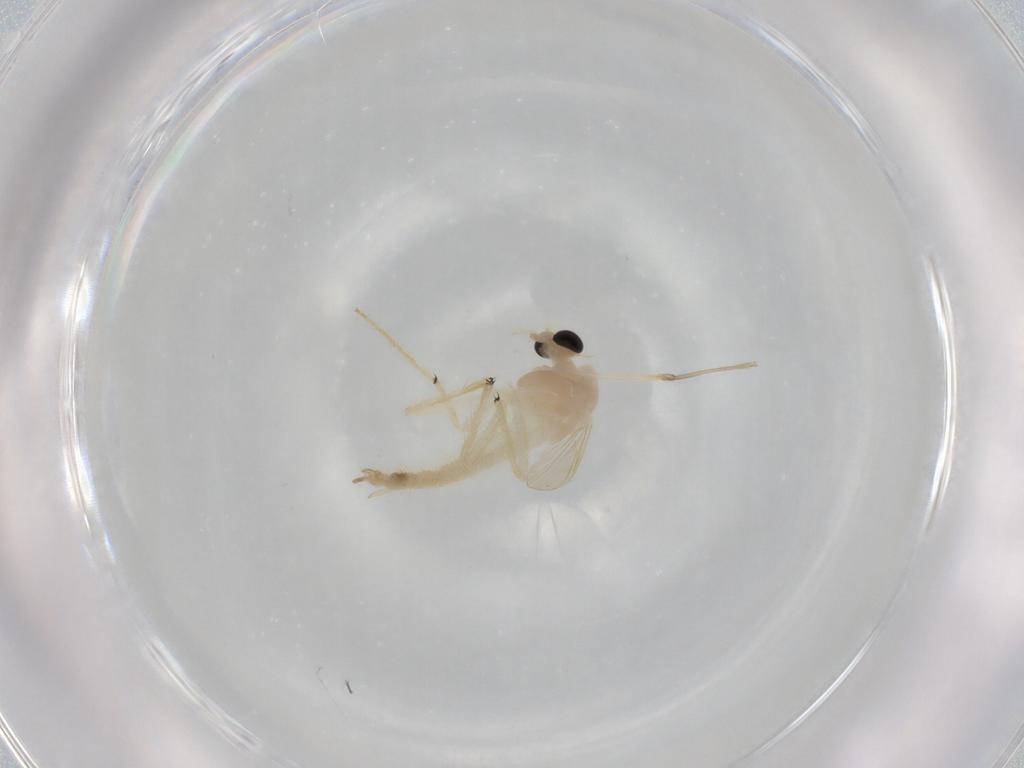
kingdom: Animalia
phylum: Arthropoda
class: Insecta
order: Diptera
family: Chironomidae
